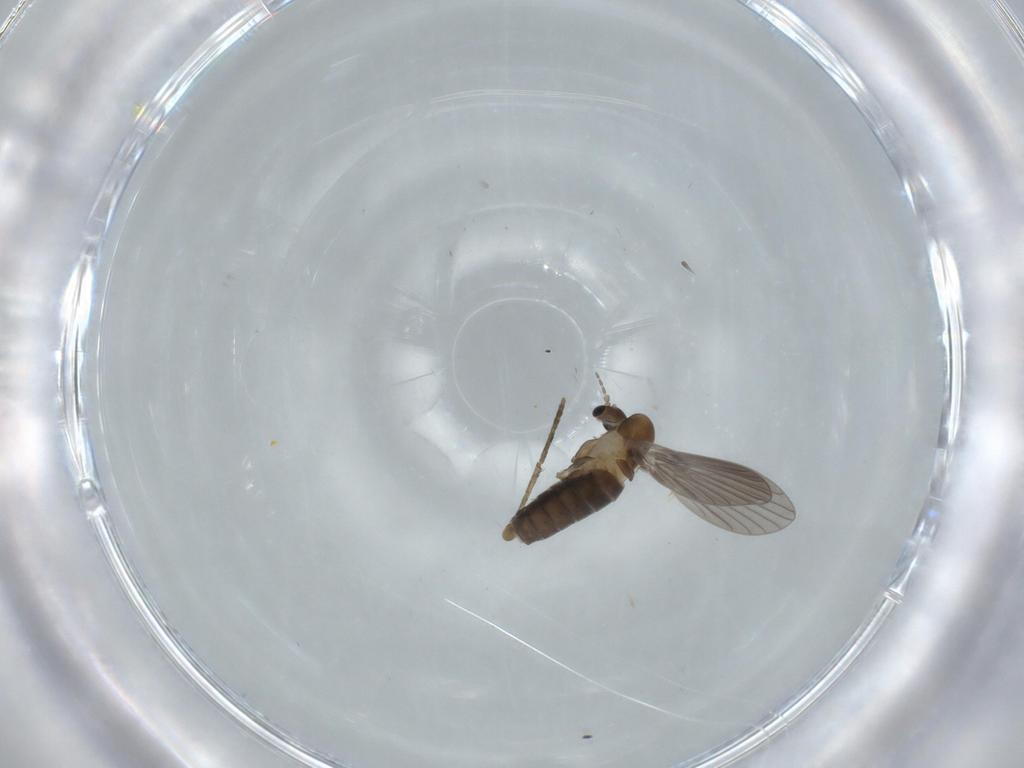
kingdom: Animalia
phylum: Arthropoda
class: Insecta
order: Diptera
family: Psychodidae
